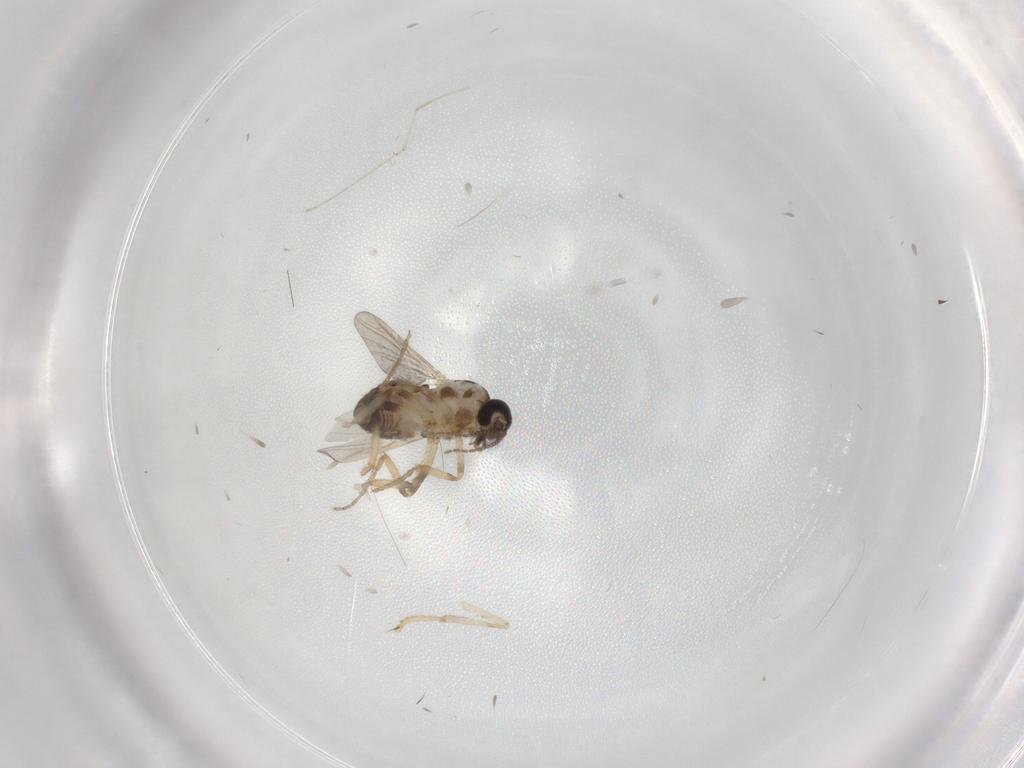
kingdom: Animalia
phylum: Arthropoda
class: Insecta
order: Diptera
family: Ceratopogonidae
